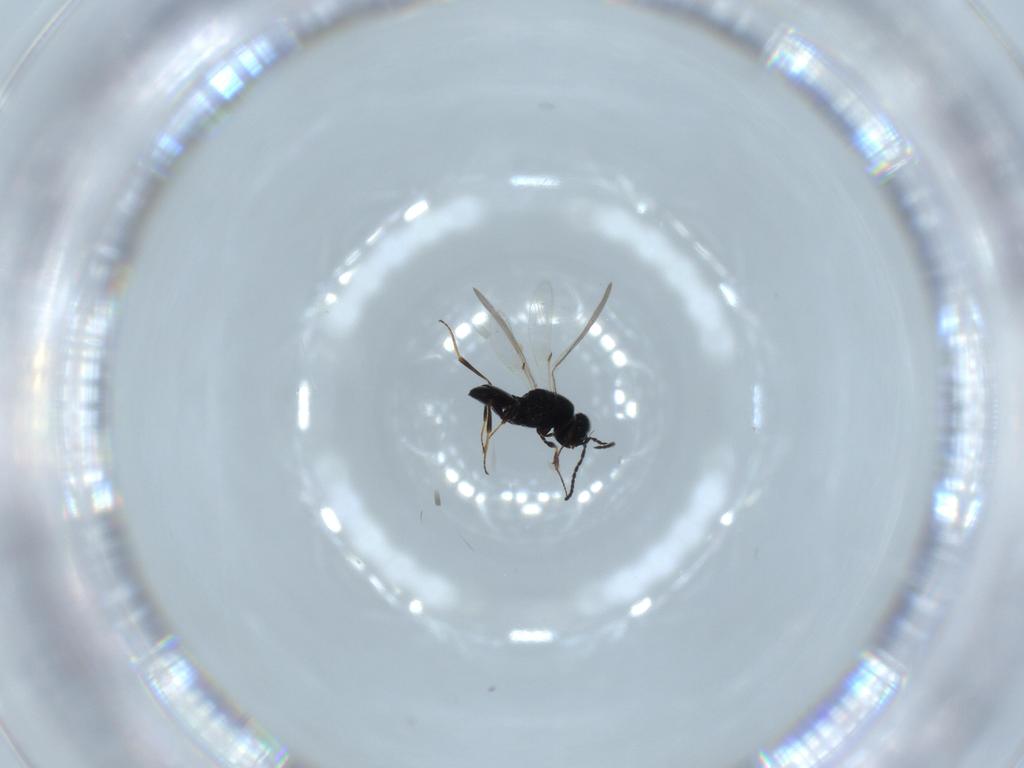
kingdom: Animalia
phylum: Arthropoda
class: Insecta
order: Hymenoptera
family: Scelionidae
